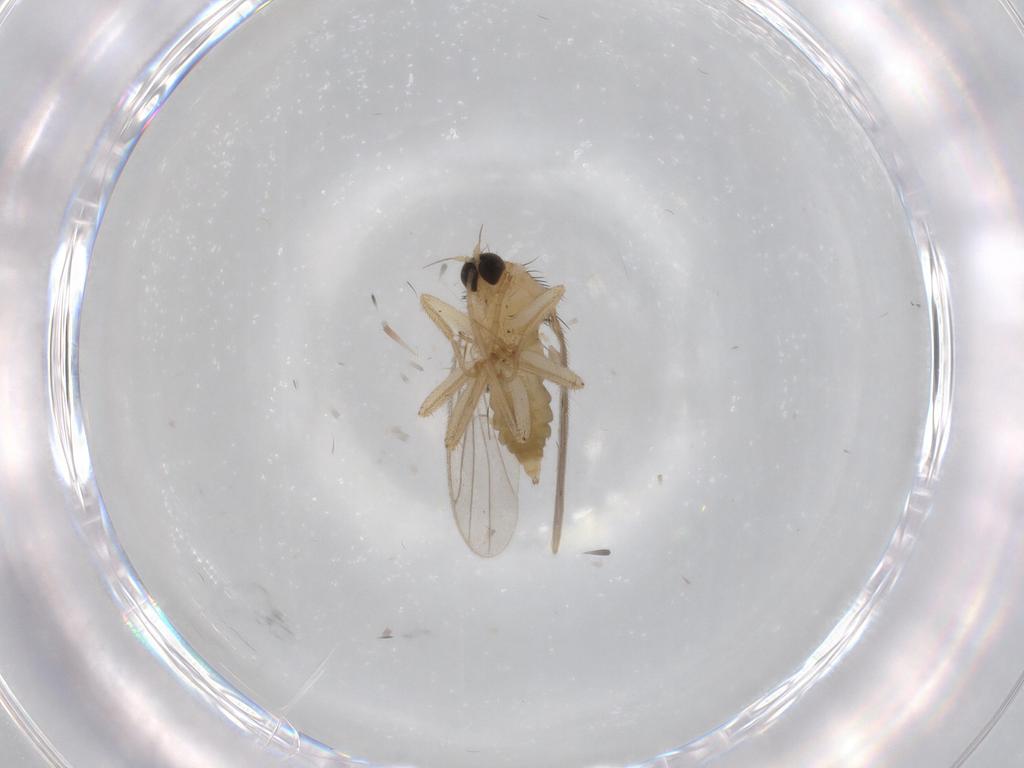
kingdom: Animalia
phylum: Arthropoda
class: Insecta
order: Diptera
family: Hybotidae
